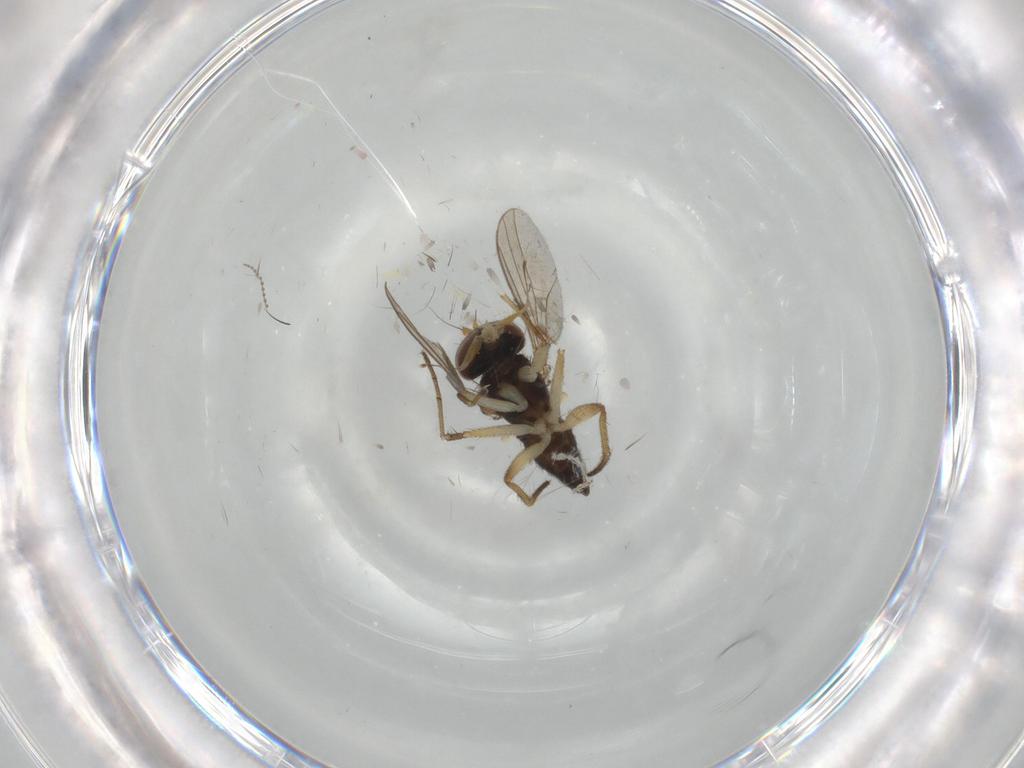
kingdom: Animalia
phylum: Arthropoda
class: Insecta
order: Diptera
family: Dolichopodidae
